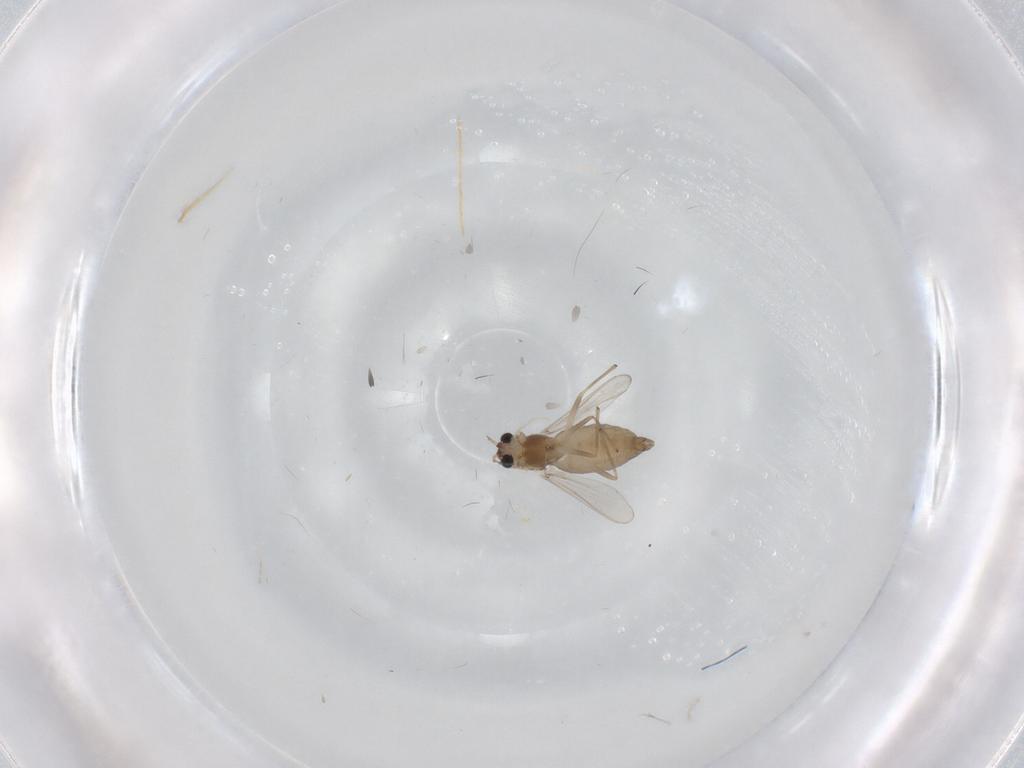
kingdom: Animalia
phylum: Arthropoda
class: Insecta
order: Diptera
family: Chironomidae
